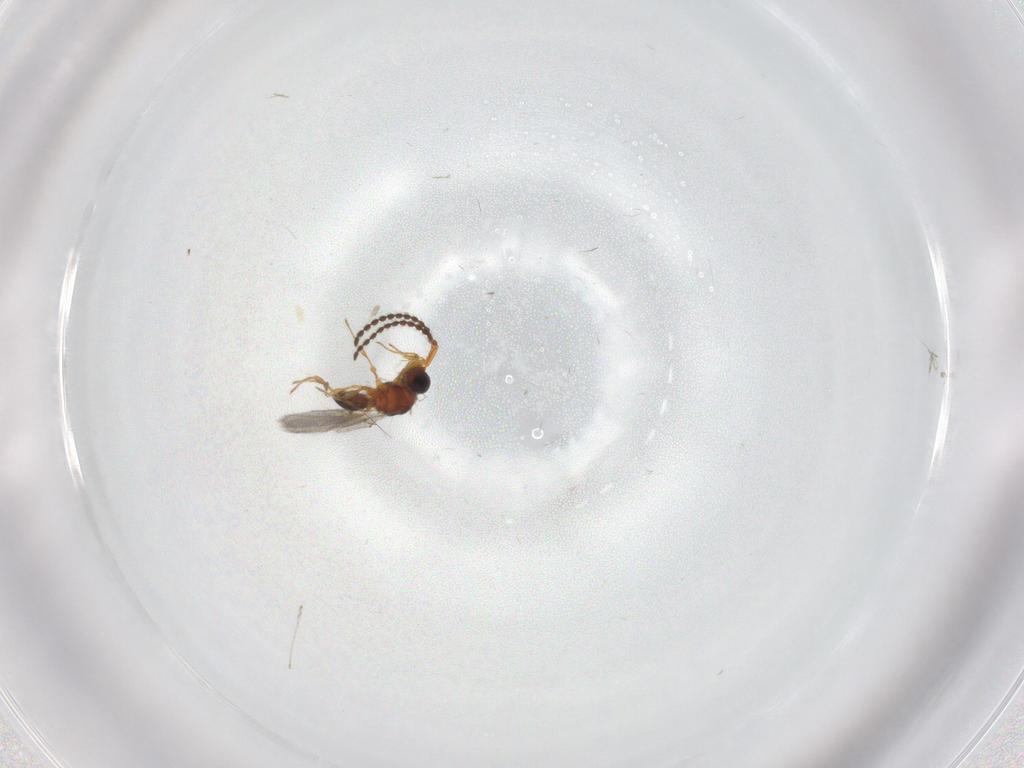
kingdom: Animalia
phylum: Arthropoda
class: Insecta
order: Hymenoptera
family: Diapriidae
